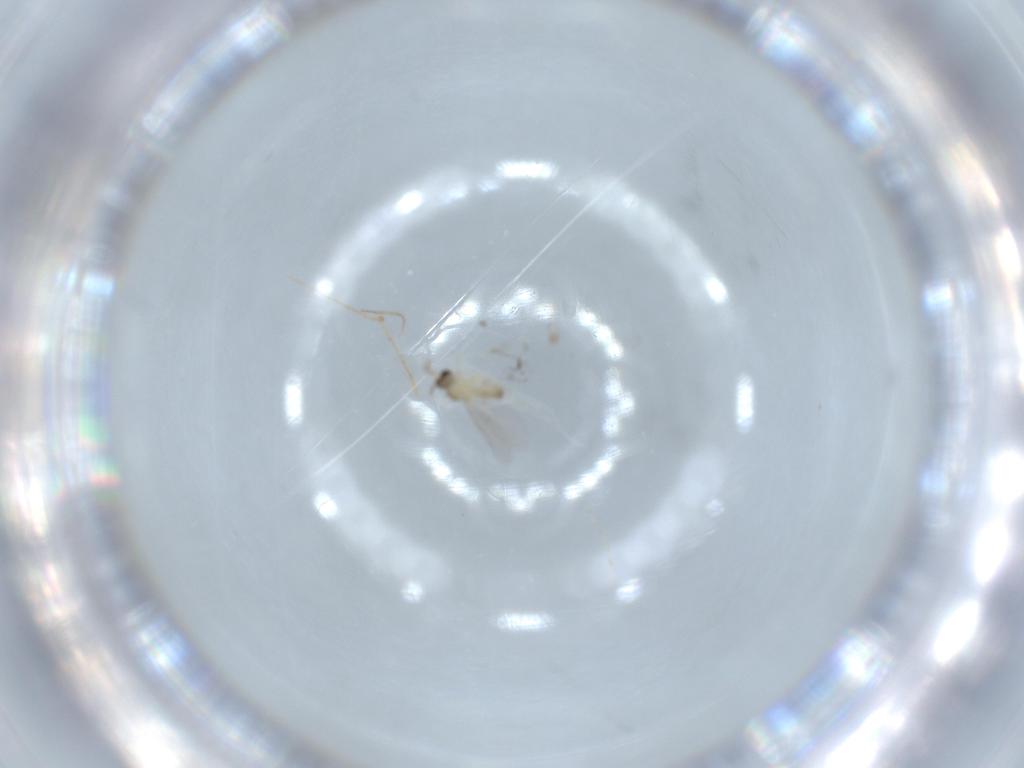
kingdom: Animalia
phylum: Arthropoda
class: Insecta
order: Diptera
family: Cecidomyiidae
